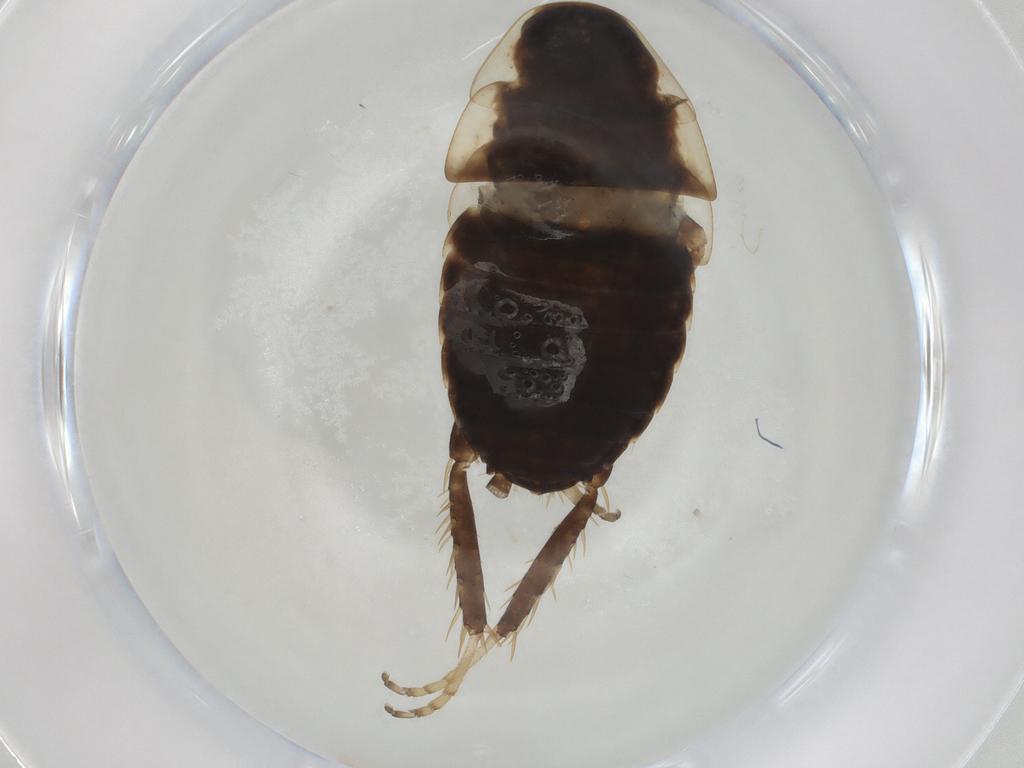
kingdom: Animalia
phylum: Arthropoda
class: Insecta
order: Blattodea
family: Ectobiidae
